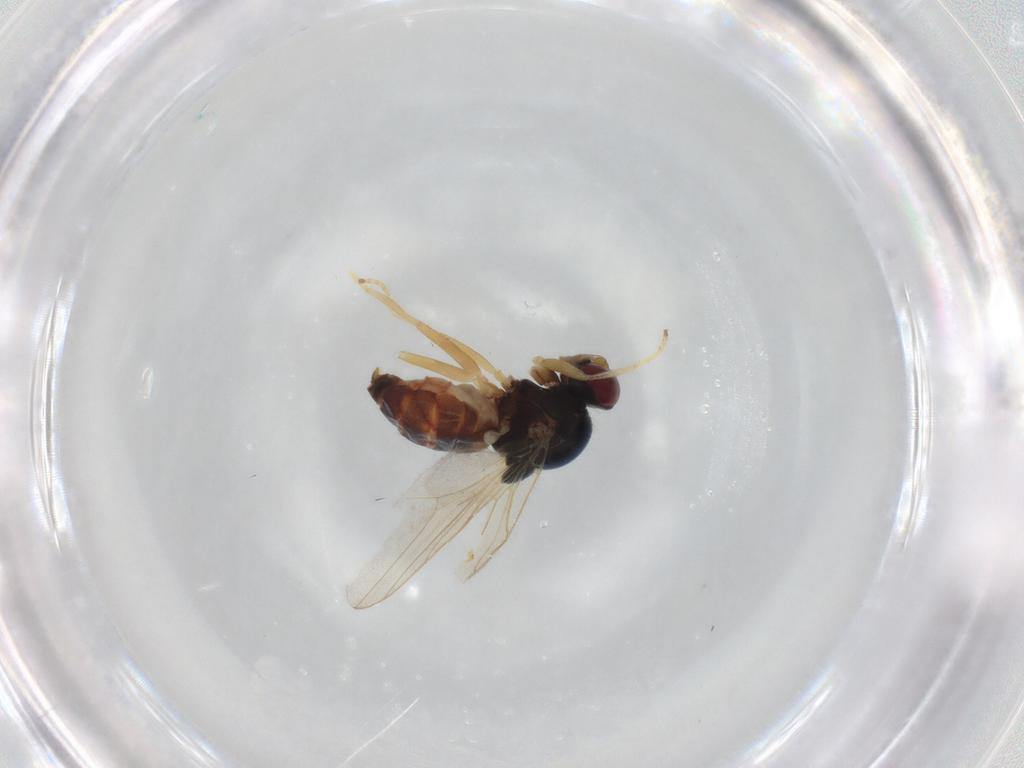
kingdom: Animalia
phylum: Arthropoda
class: Insecta
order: Diptera
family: Chloropidae
